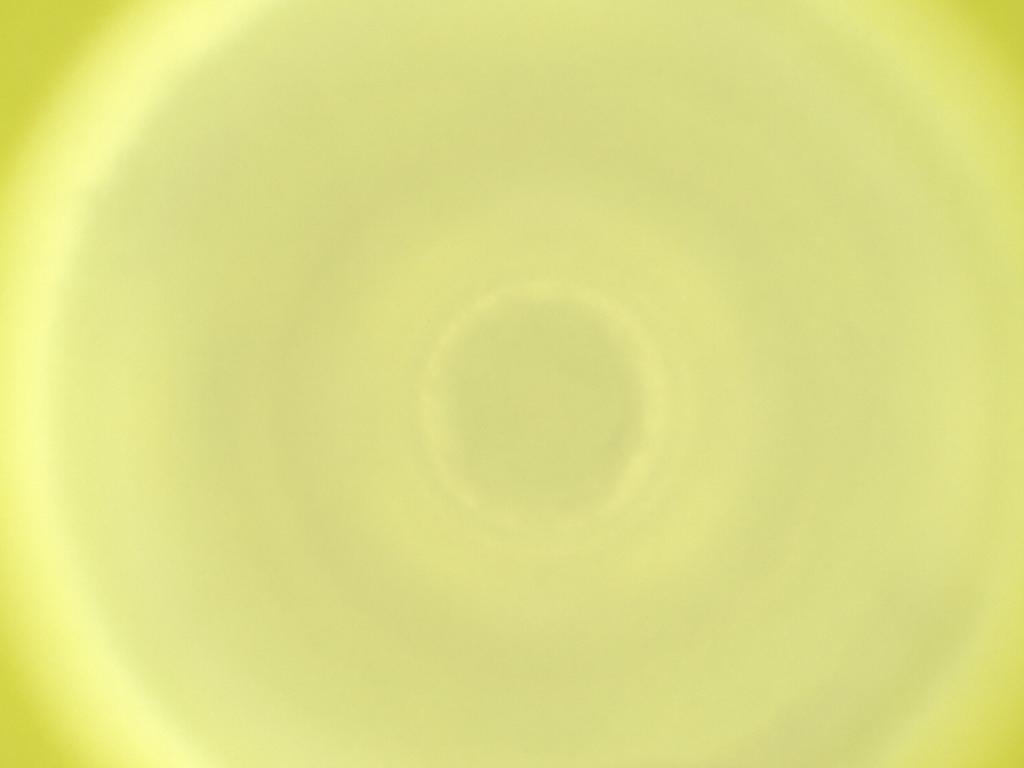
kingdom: Animalia
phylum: Arthropoda
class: Insecta
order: Diptera
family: Cecidomyiidae
